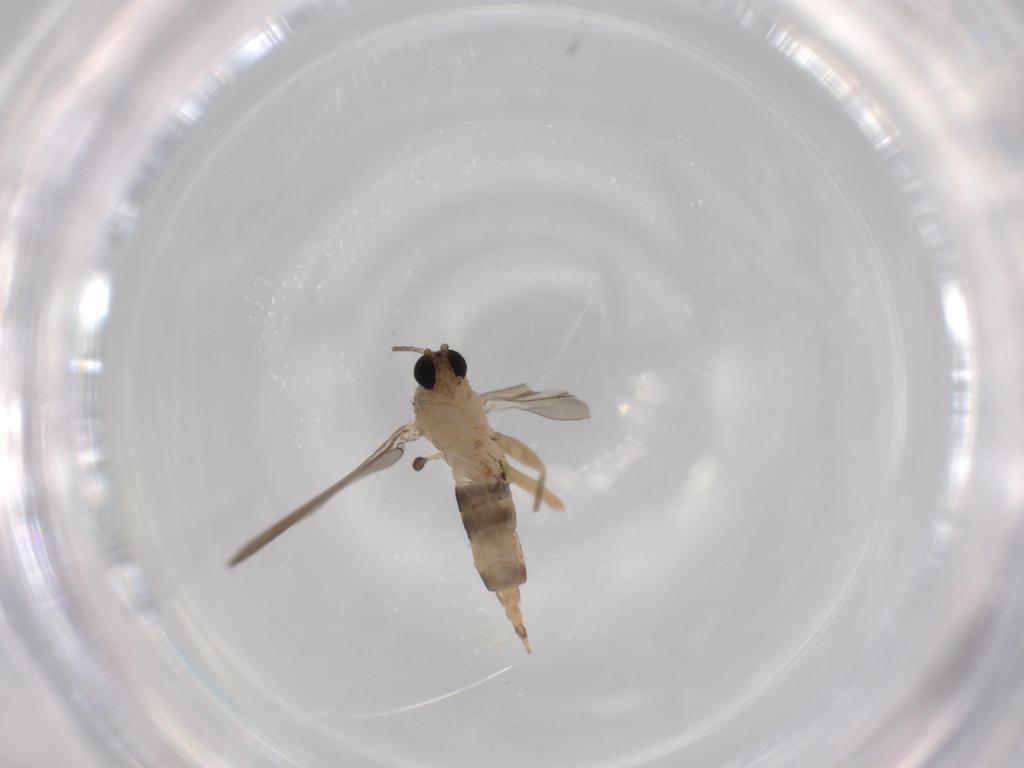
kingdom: Animalia
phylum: Arthropoda
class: Insecta
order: Diptera
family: Sciaridae
